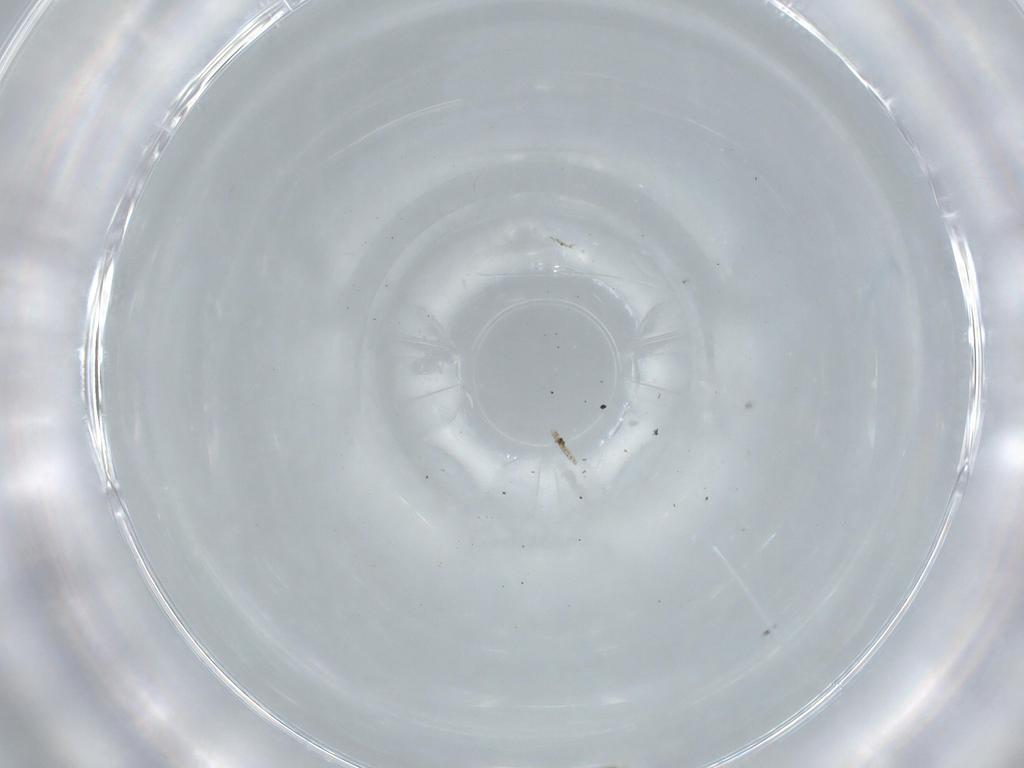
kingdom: Animalia
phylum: Arthropoda
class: Insecta
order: Diptera
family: Cecidomyiidae
